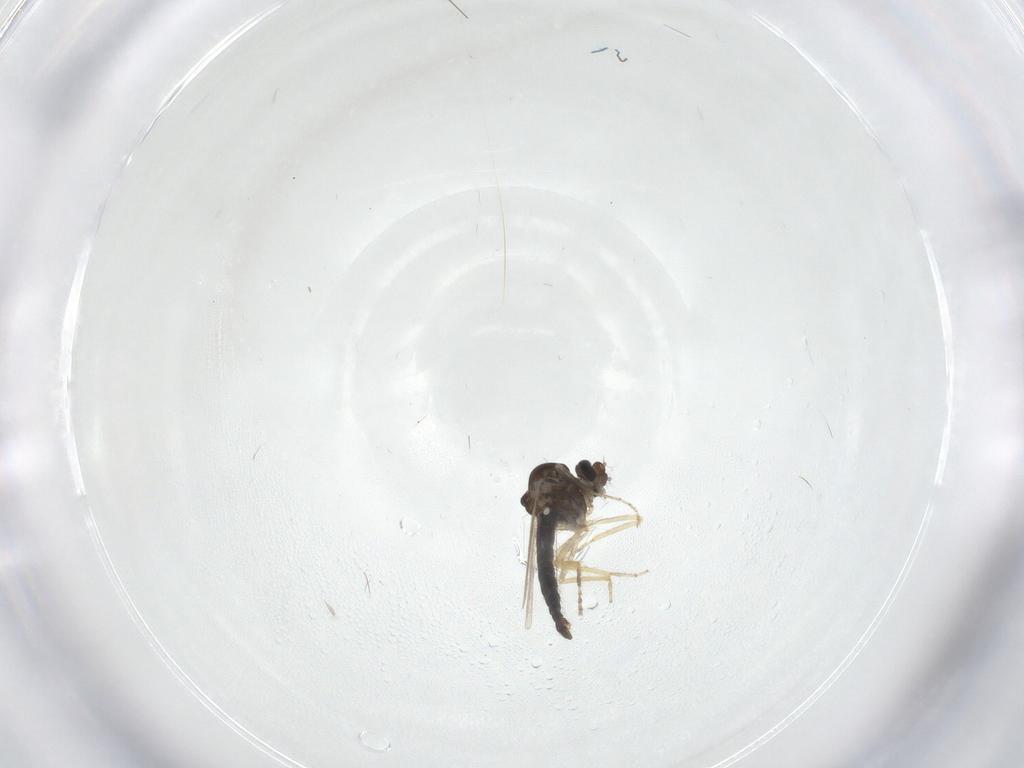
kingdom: Animalia
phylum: Arthropoda
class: Insecta
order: Diptera
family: Ceratopogonidae
